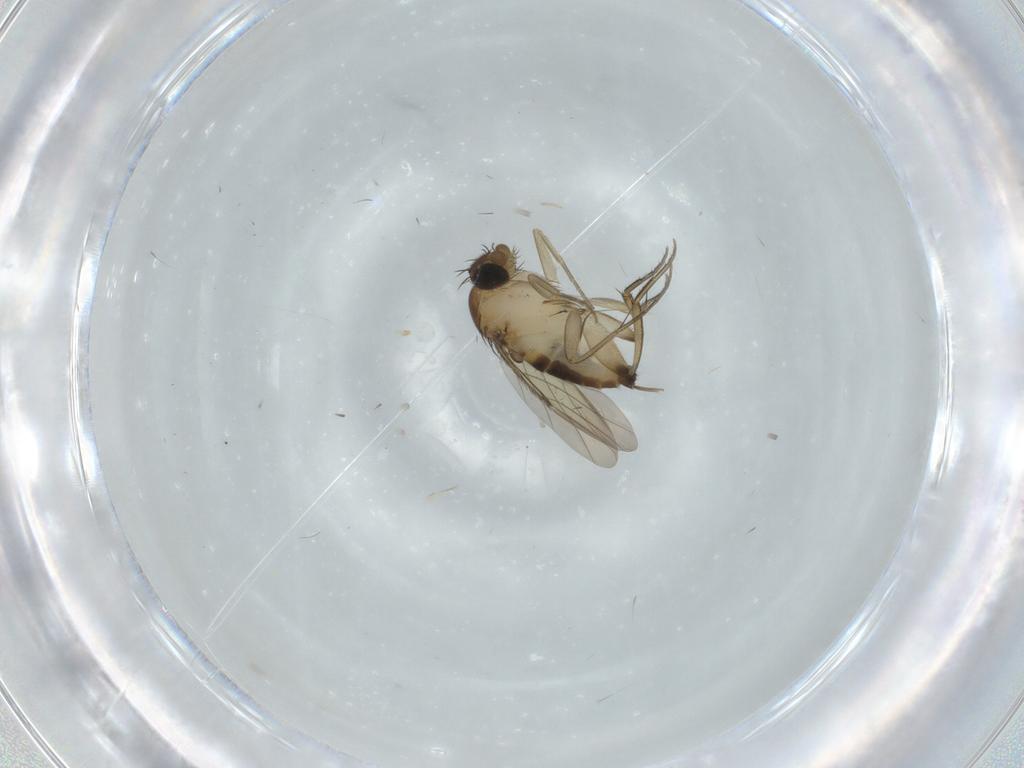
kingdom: Animalia
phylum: Arthropoda
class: Insecta
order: Diptera
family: Phoridae
